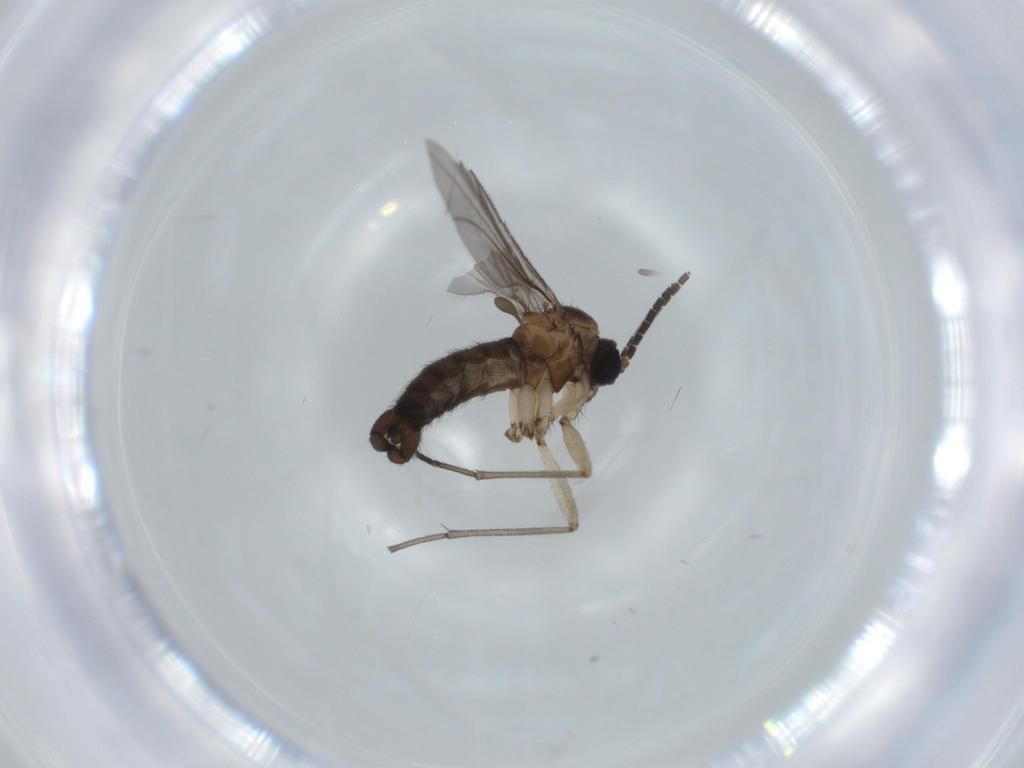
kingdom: Animalia
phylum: Arthropoda
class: Insecta
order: Diptera
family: Sciaridae
